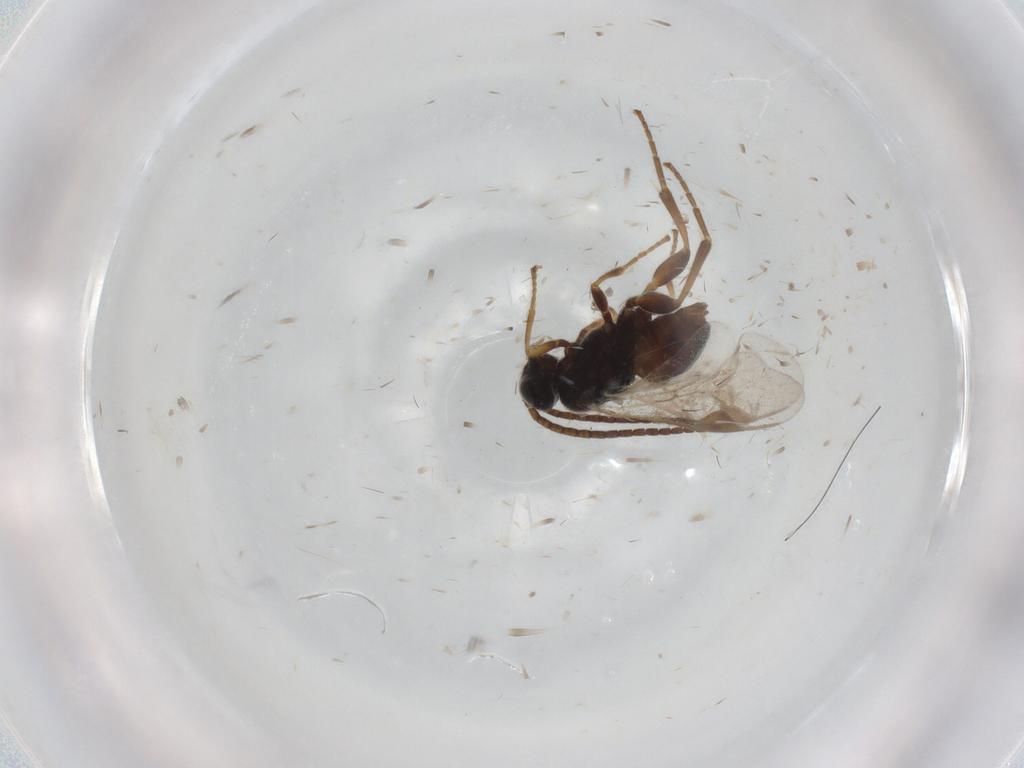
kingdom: Animalia
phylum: Arthropoda
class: Insecta
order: Hymenoptera
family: Braconidae
